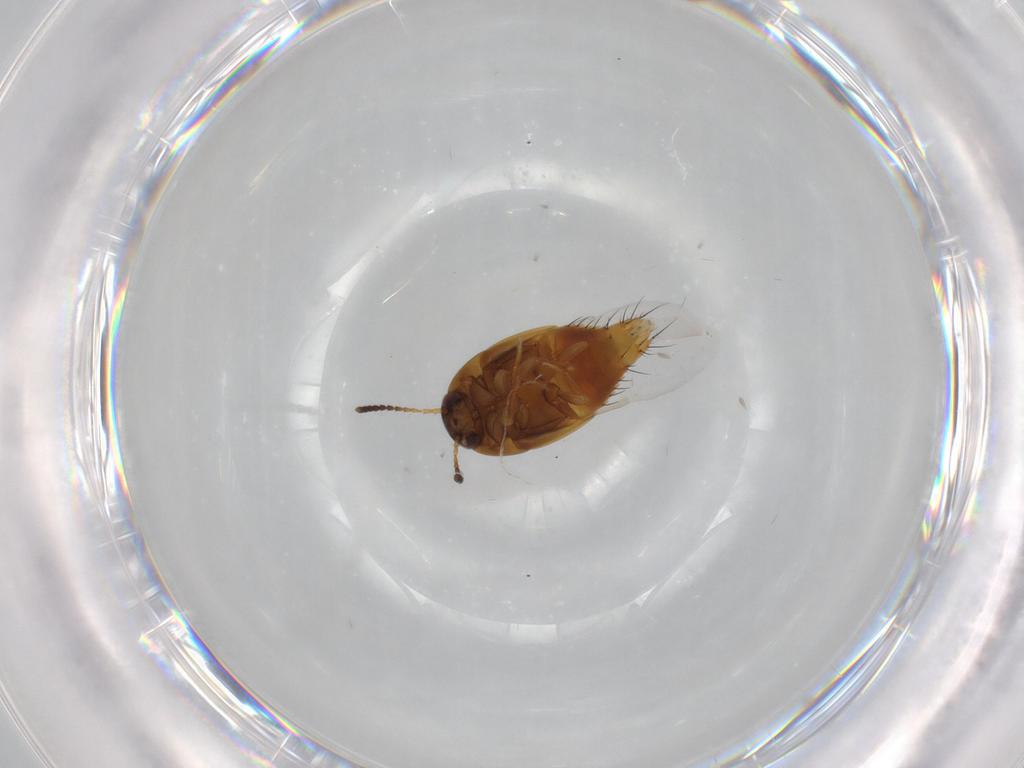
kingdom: Animalia
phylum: Arthropoda
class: Insecta
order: Coleoptera
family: Staphylinidae
